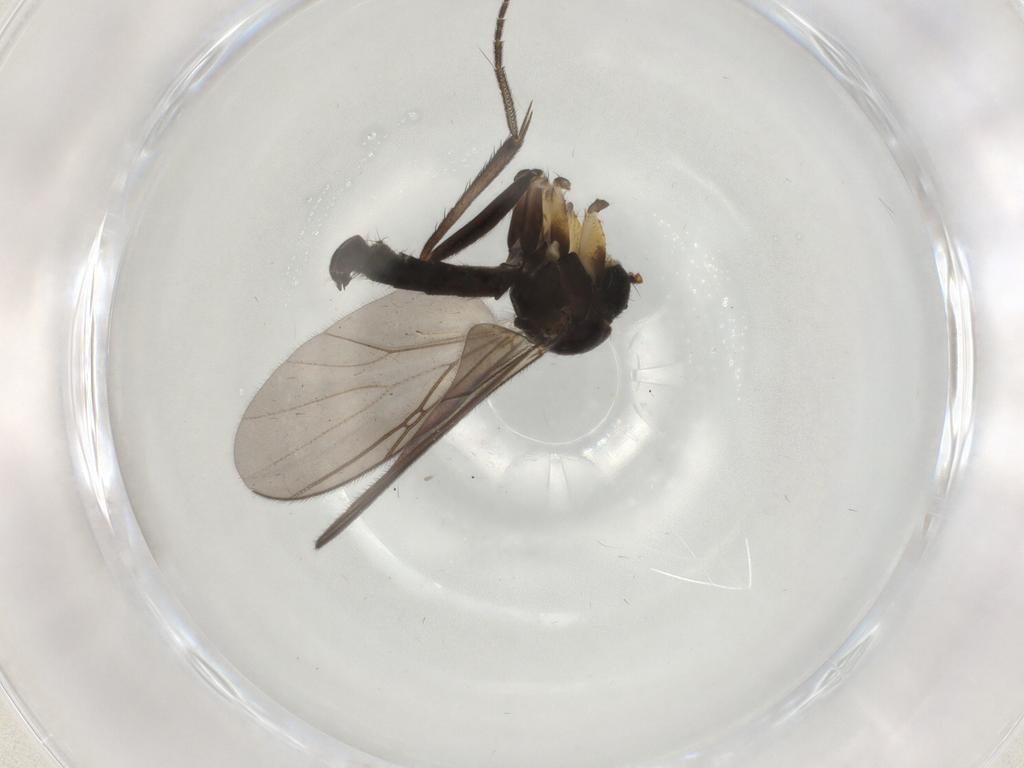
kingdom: Animalia
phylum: Arthropoda
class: Insecta
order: Diptera
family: Mycetophilidae
